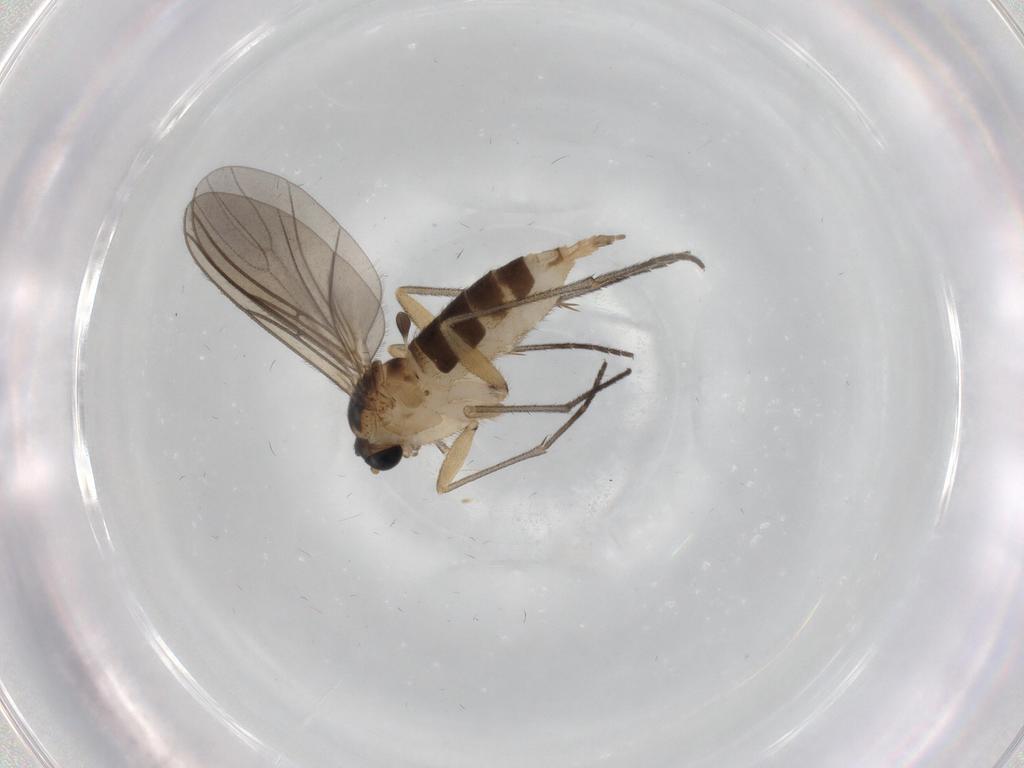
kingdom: Animalia
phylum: Arthropoda
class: Insecta
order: Diptera
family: Sciaridae
